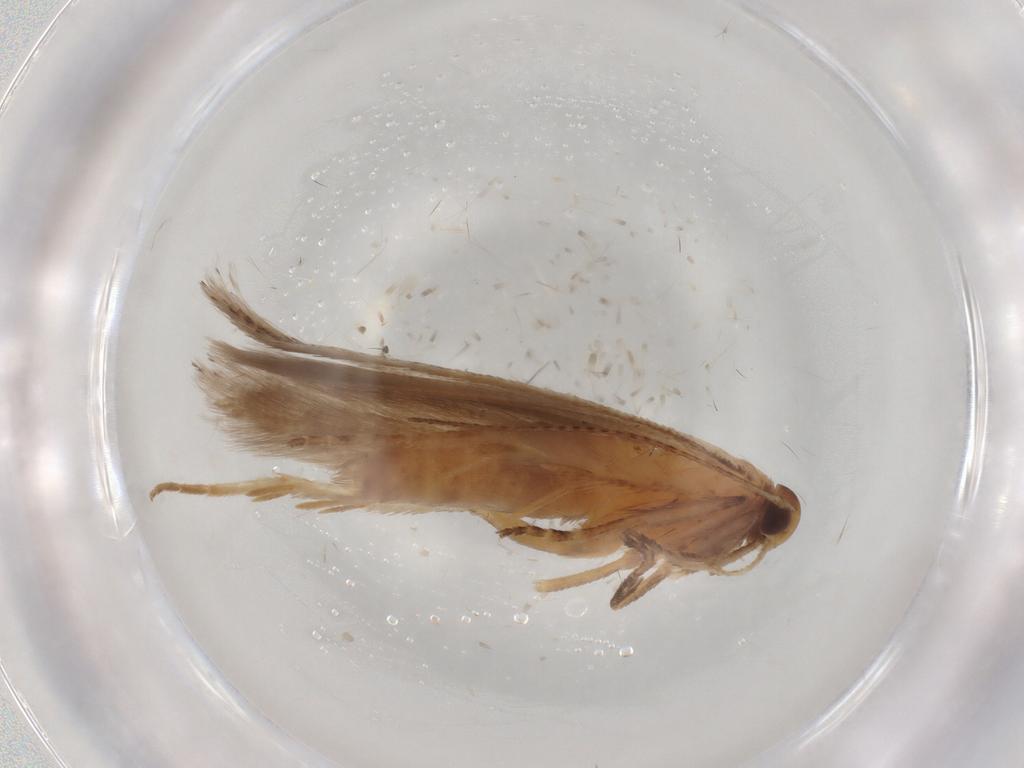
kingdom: Animalia
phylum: Arthropoda
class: Insecta
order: Lepidoptera
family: Gelechiidae
